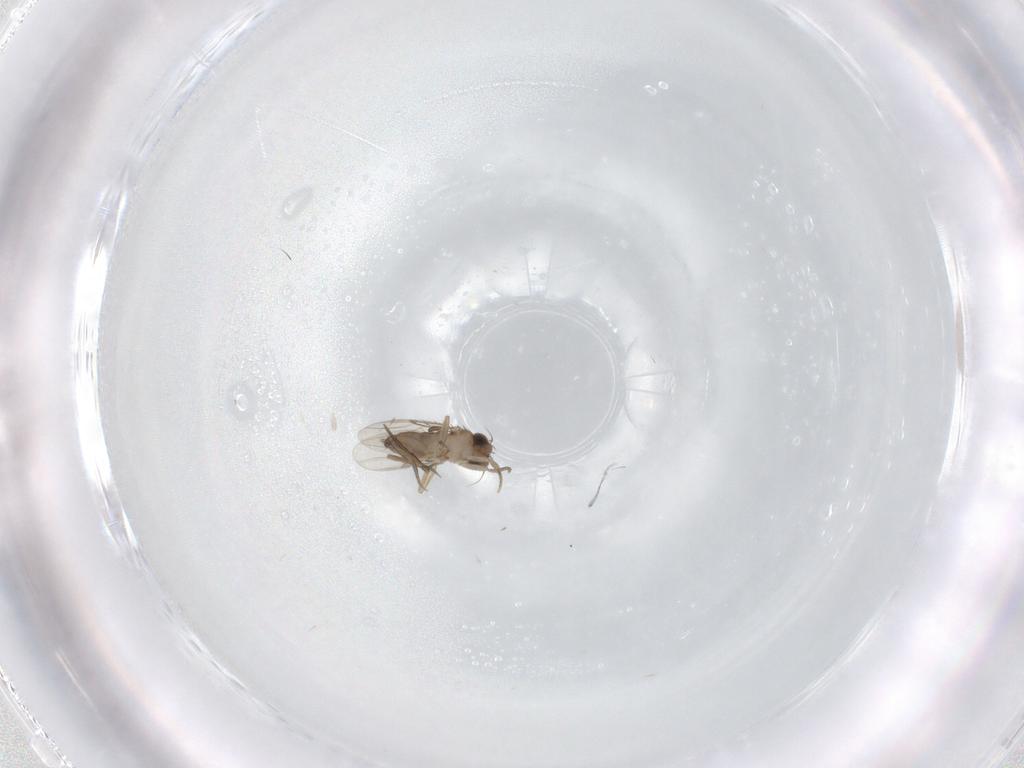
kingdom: Animalia
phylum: Arthropoda
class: Insecta
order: Diptera
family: Phoridae
